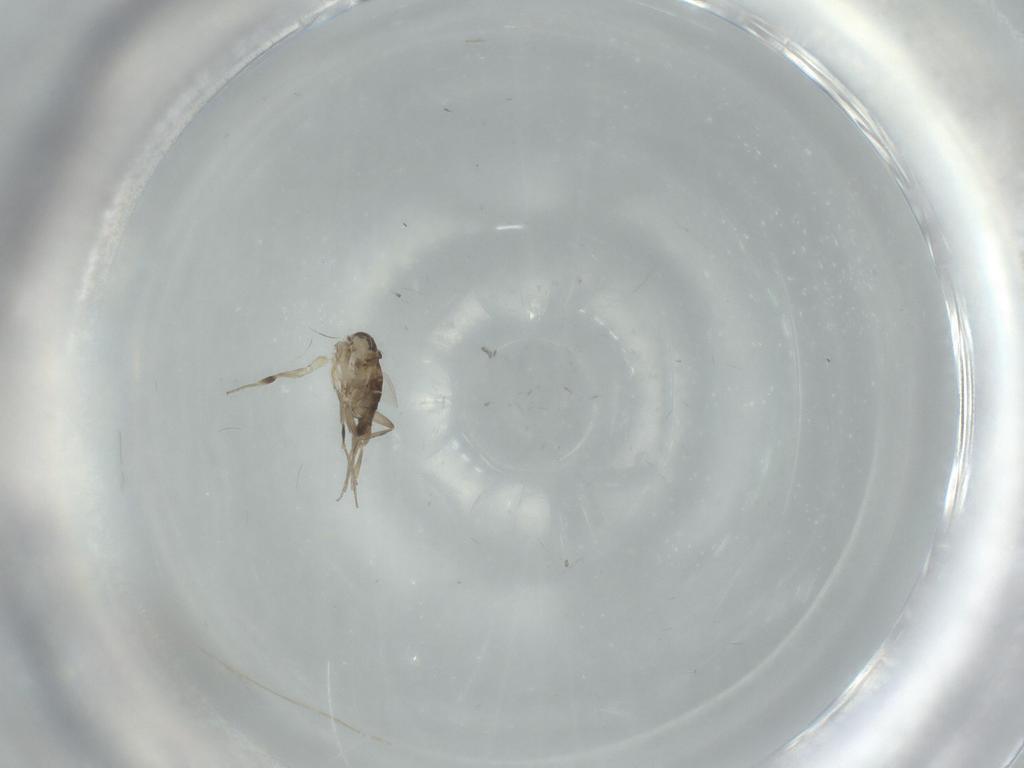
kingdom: Animalia
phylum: Arthropoda
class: Insecta
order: Diptera
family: Phoridae
